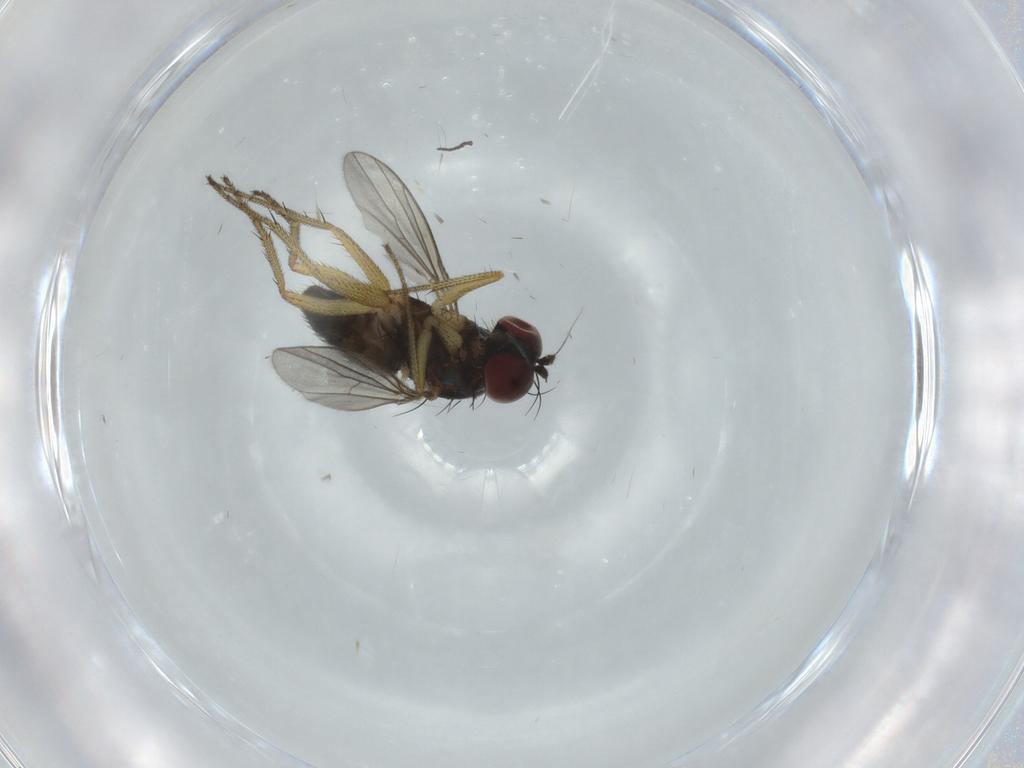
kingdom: Animalia
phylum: Arthropoda
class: Insecta
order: Diptera
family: Dolichopodidae
